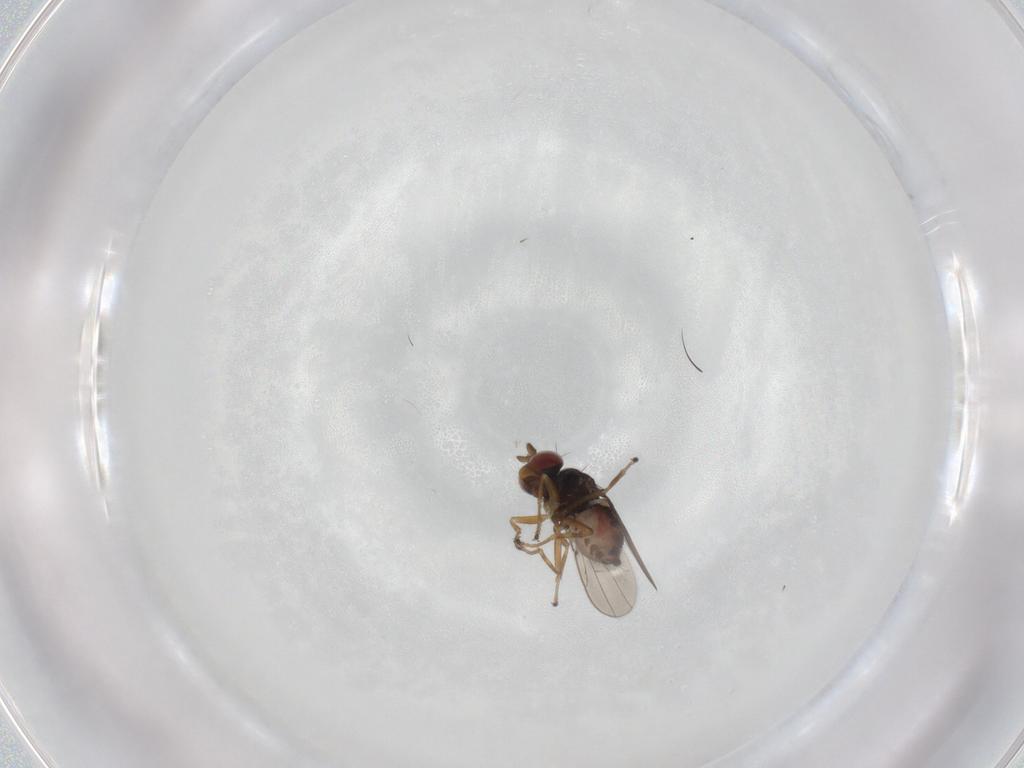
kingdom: Animalia
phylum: Arthropoda
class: Insecta
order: Diptera
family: Ephydridae
